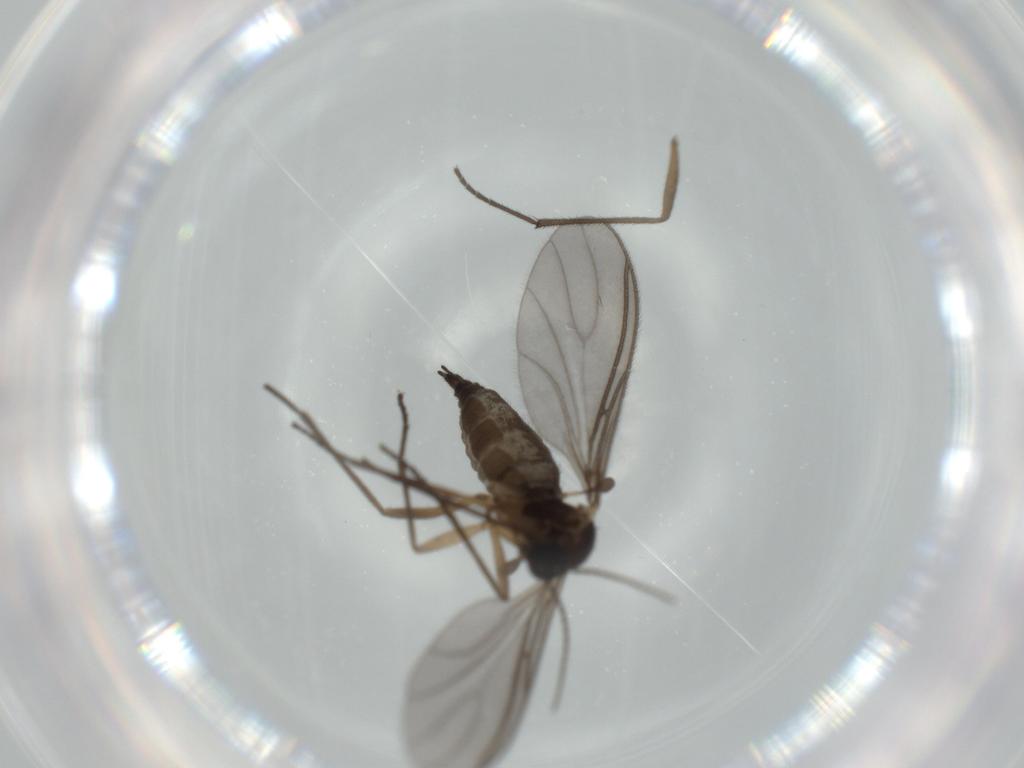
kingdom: Animalia
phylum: Arthropoda
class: Insecta
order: Diptera
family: Sciaridae
